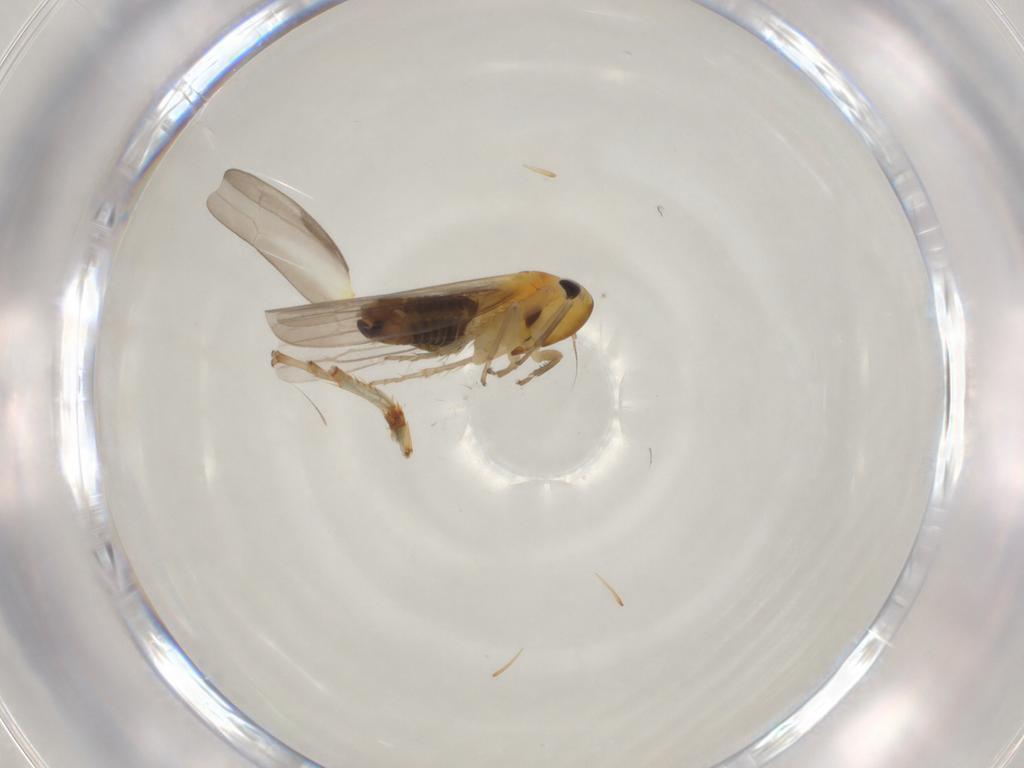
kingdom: Animalia
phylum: Arthropoda
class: Insecta
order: Hemiptera
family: Cicadellidae
